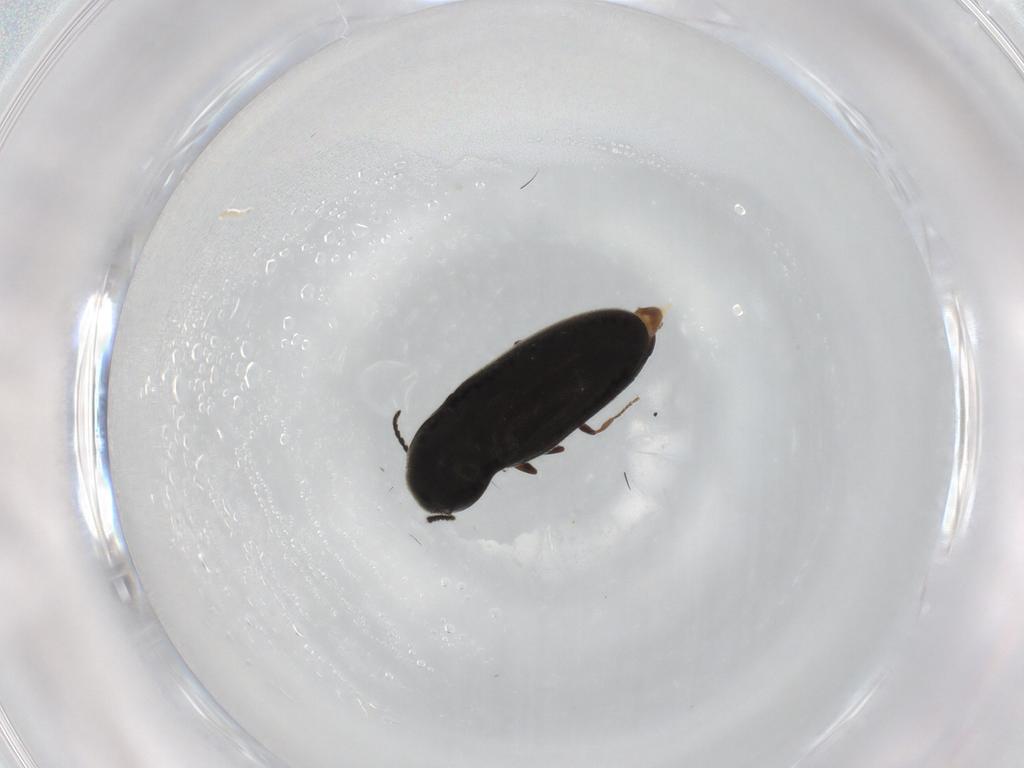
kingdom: Animalia
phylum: Arthropoda
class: Insecta
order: Coleoptera
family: Elateridae
